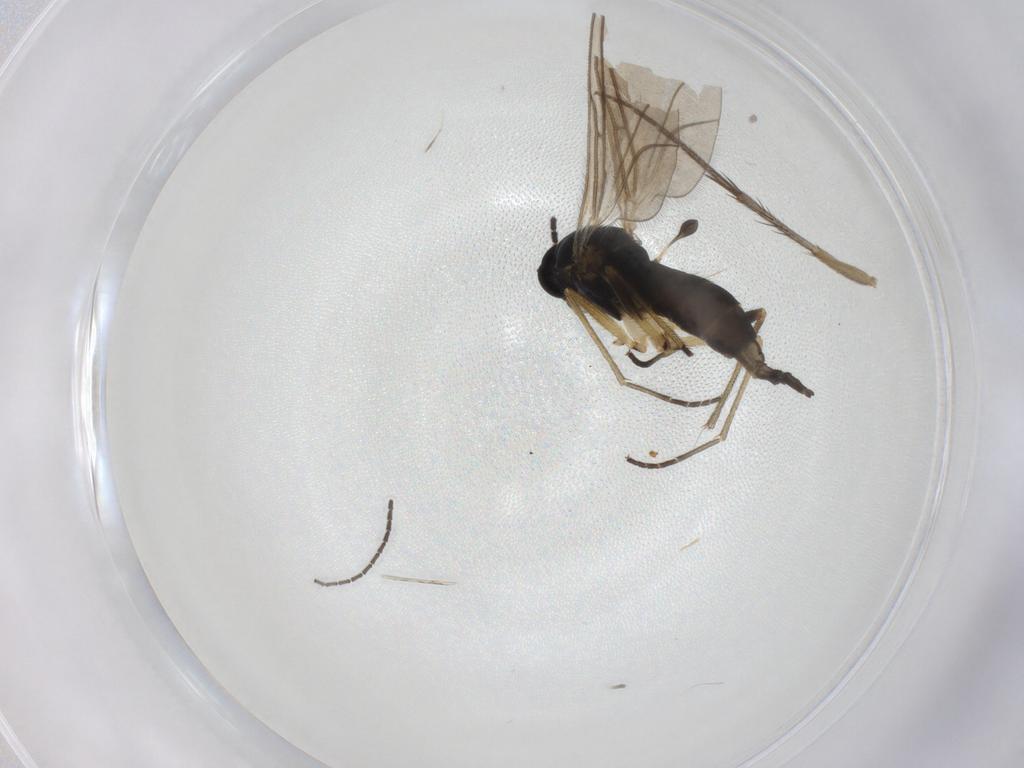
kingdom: Animalia
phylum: Arthropoda
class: Insecta
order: Diptera
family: Sciaridae
